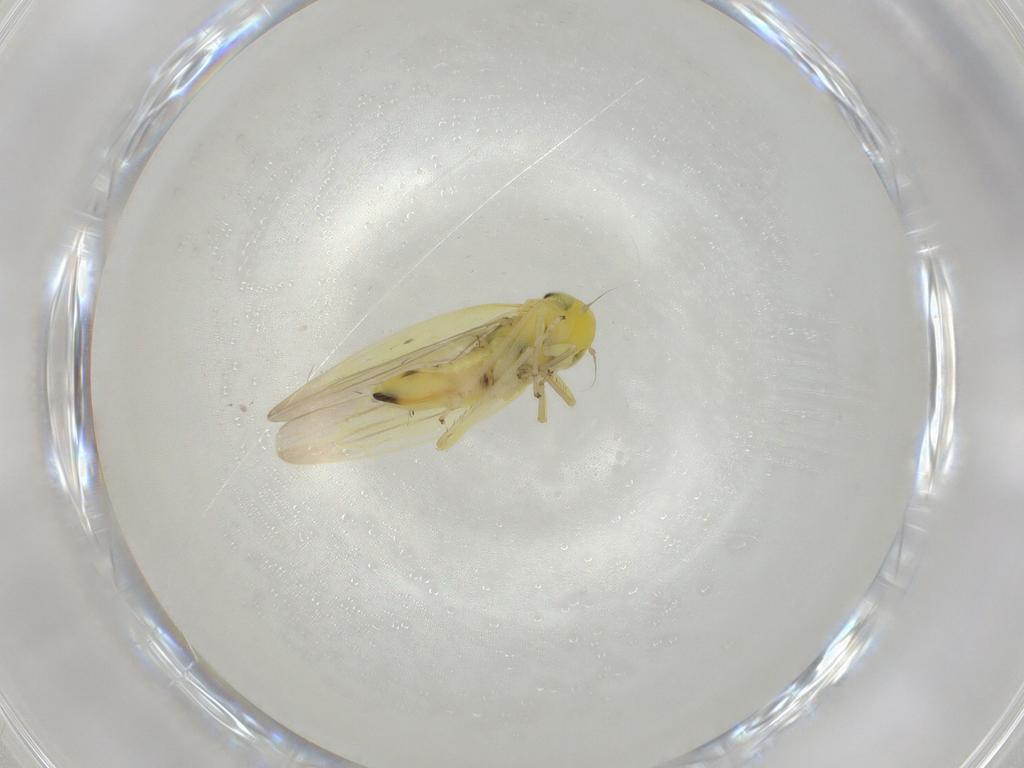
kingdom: Animalia
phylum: Arthropoda
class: Insecta
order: Hemiptera
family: Cicadellidae
